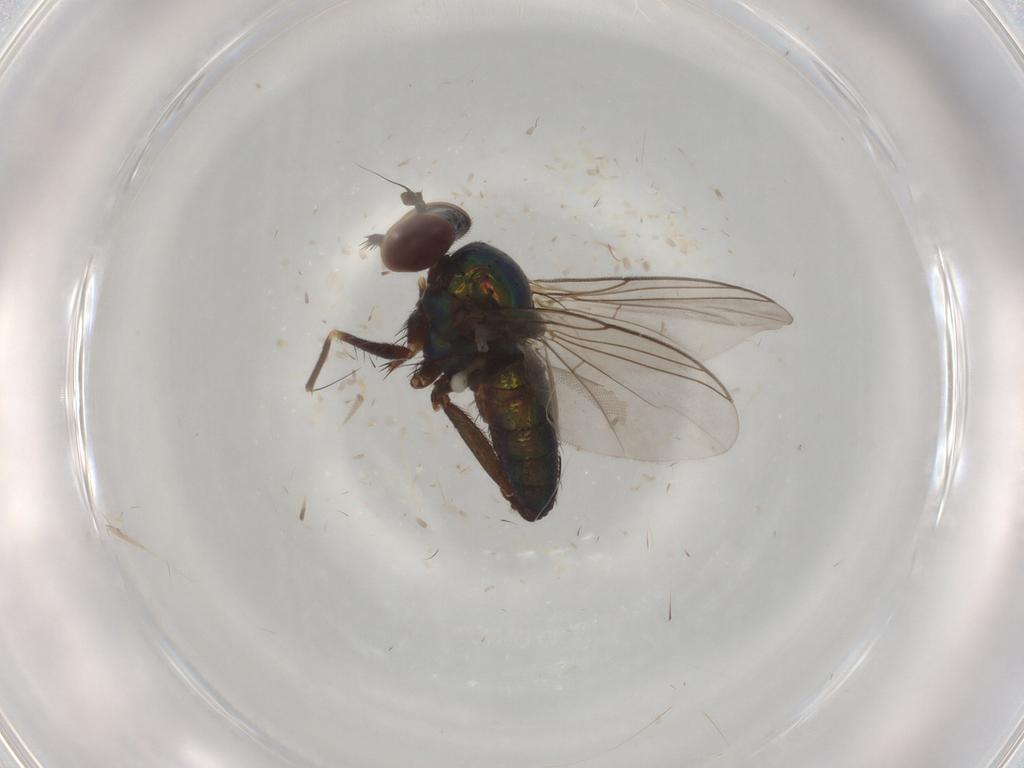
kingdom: Animalia
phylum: Arthropoda
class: Insecta
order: Diptera
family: Dolichopodidae
